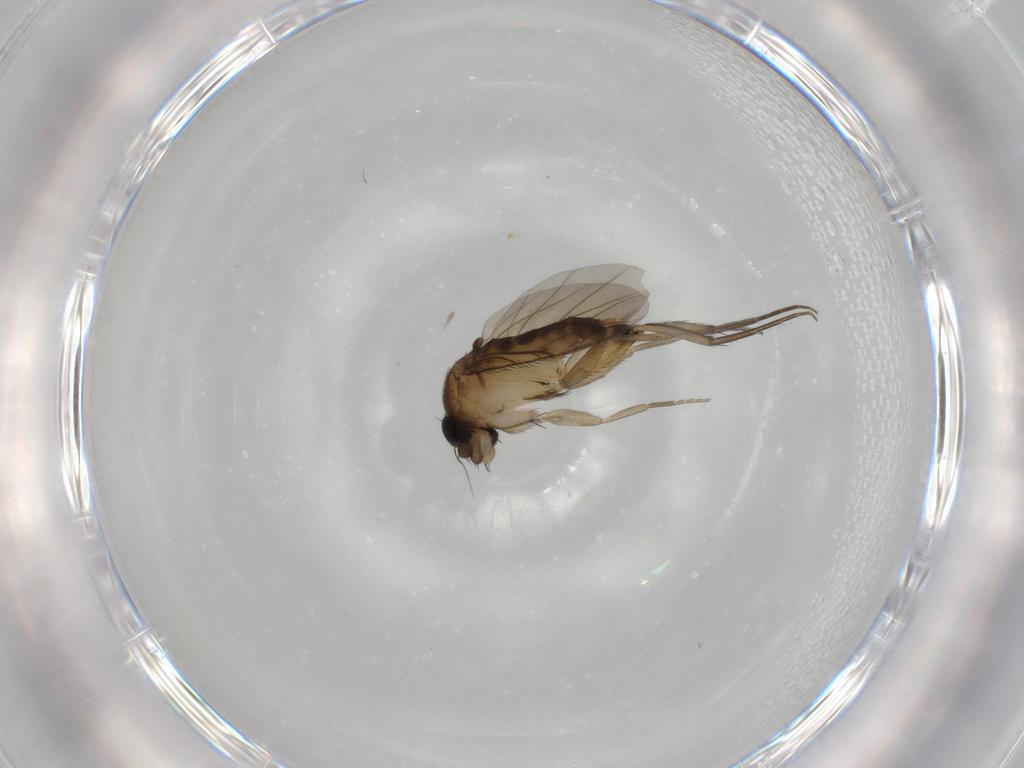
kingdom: Animalia
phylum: Arthropoda
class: Insecta
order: Diptera
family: Phoridae
